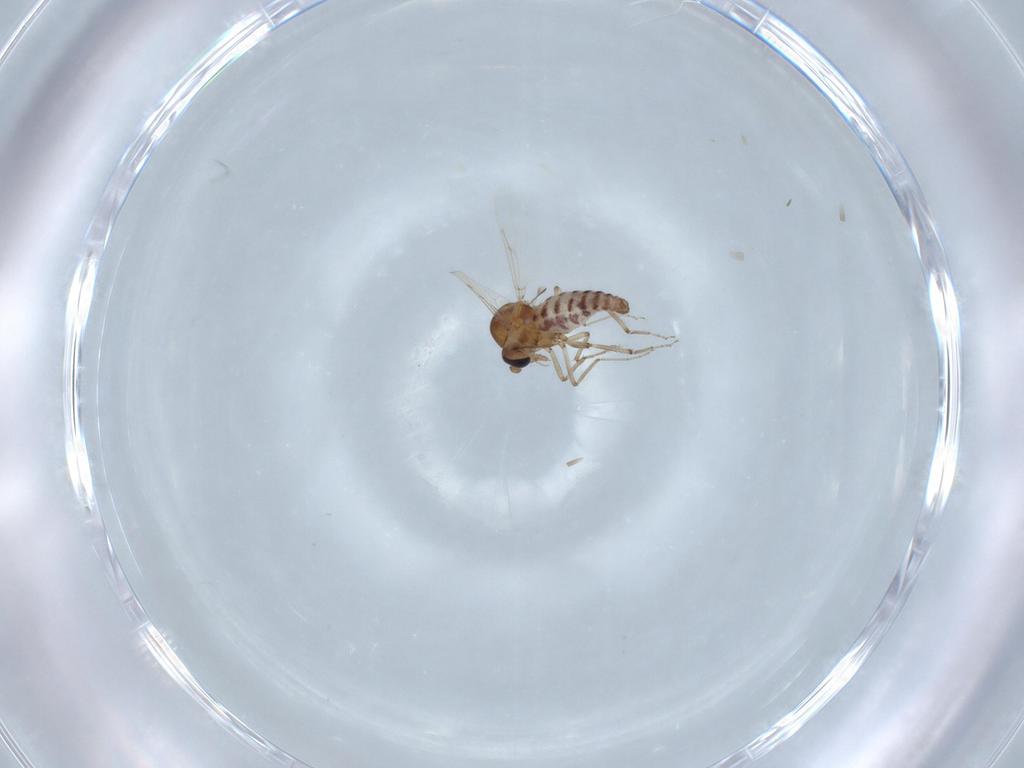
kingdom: Animalia
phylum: Arthropoda
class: Insecta
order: Diptera
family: Ceratopogonidae
